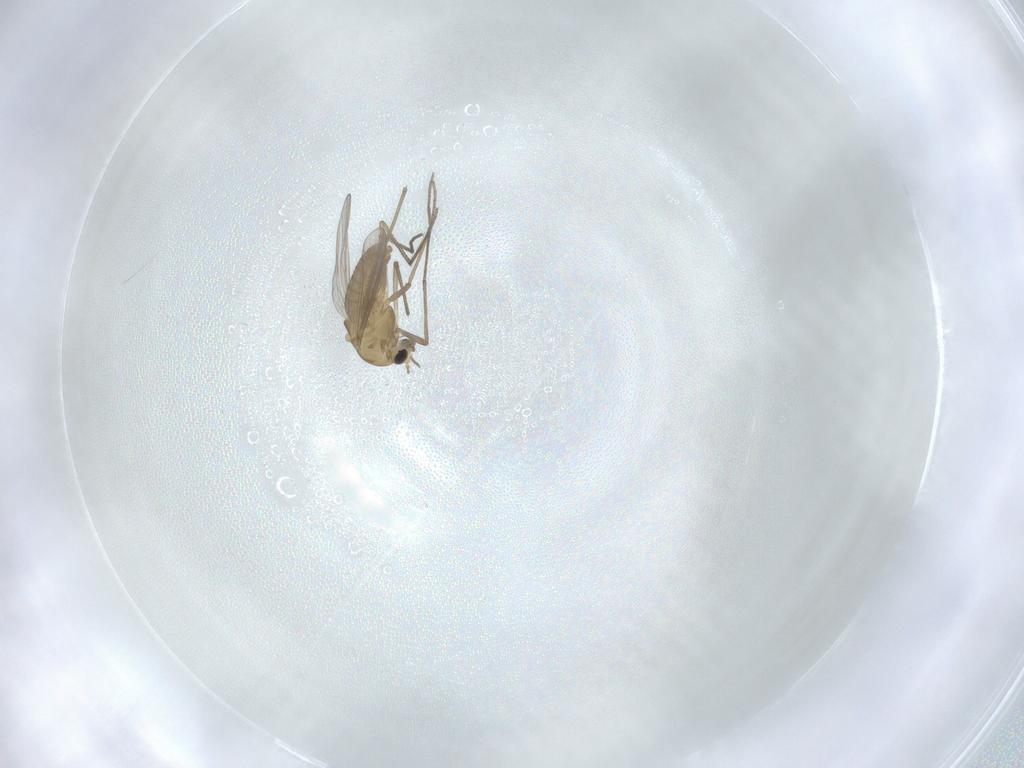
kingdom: Animalia
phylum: Arthropoda
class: Insecta
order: Diptera
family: Chironomidae
